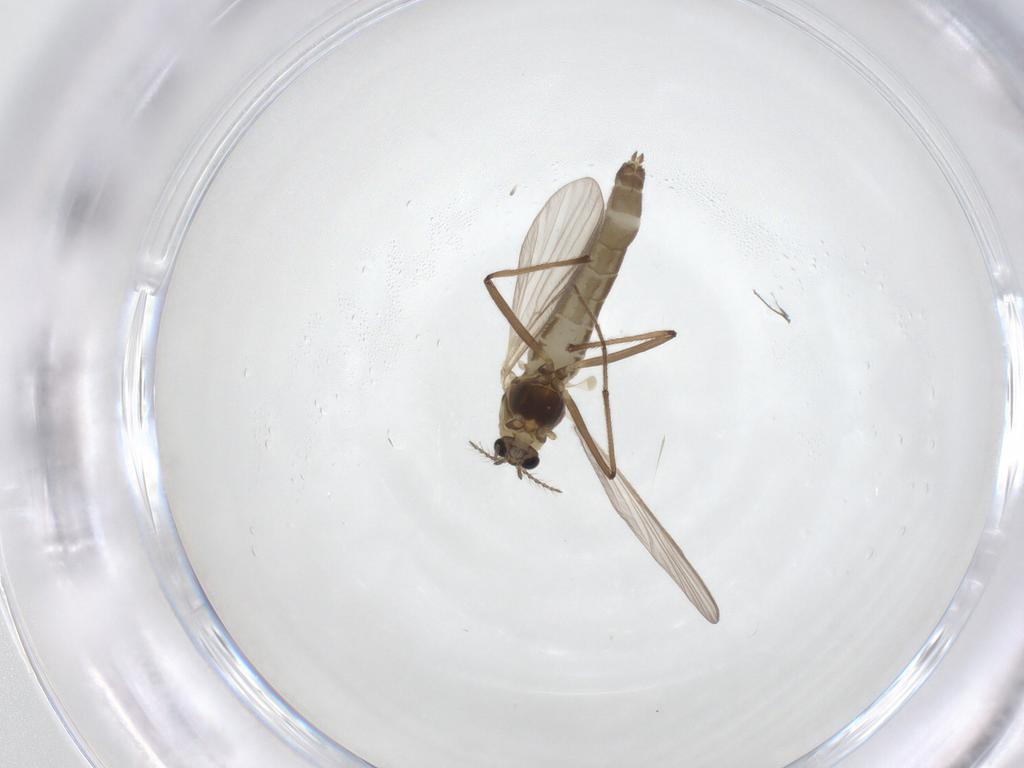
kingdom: Animalia
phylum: Arthropoda
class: Insecta
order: Diptera
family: Chironomidae
